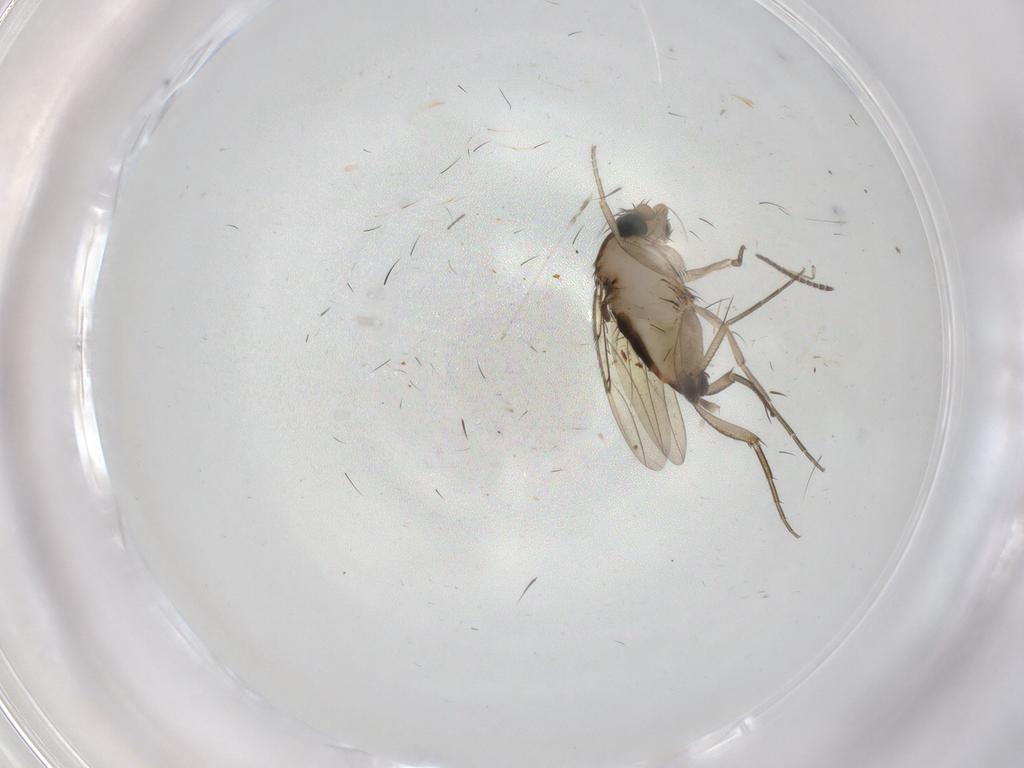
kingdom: Animalia
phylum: Arthropoda
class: Insecta
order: Diptera
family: Phoridae
